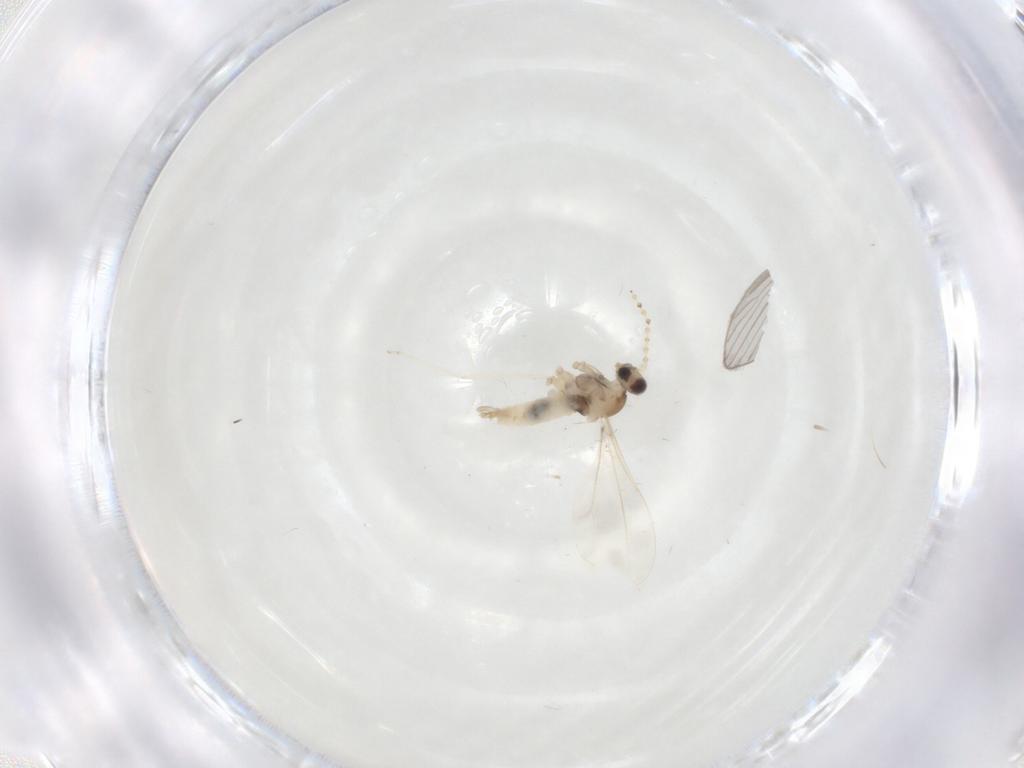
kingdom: Animalia
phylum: Arthropoda
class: Insecta
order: Diptera
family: Psychodidae
